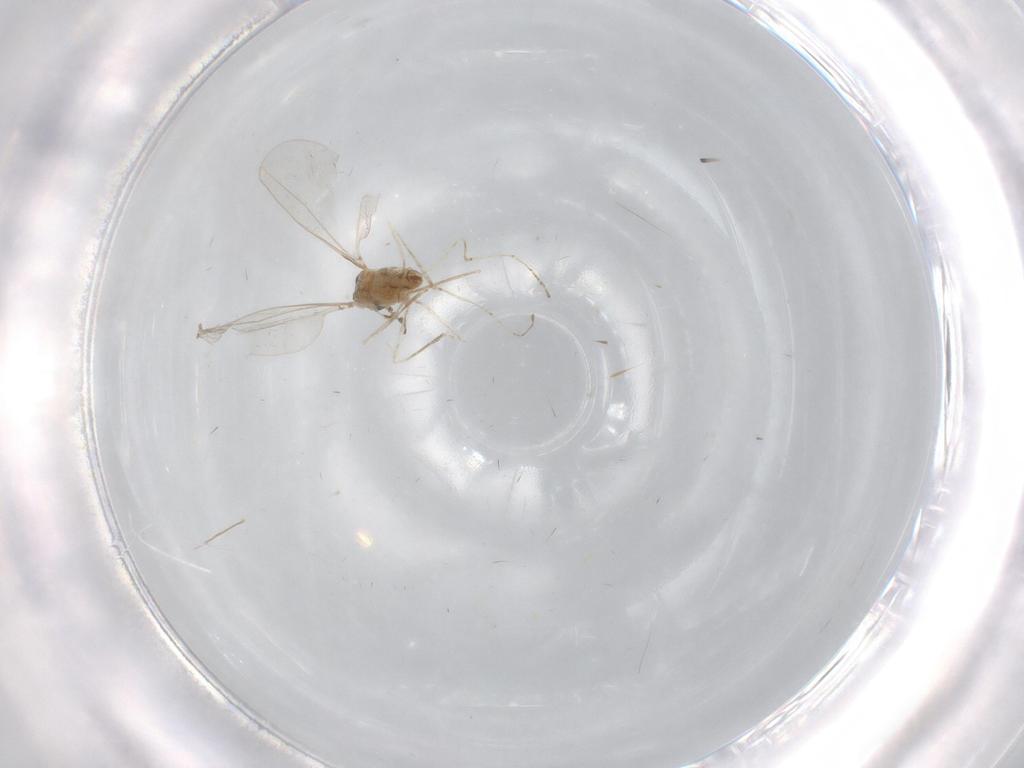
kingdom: Animalia
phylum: Arthropoda
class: Insecta
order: Diptera
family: Cecidomyiidae
